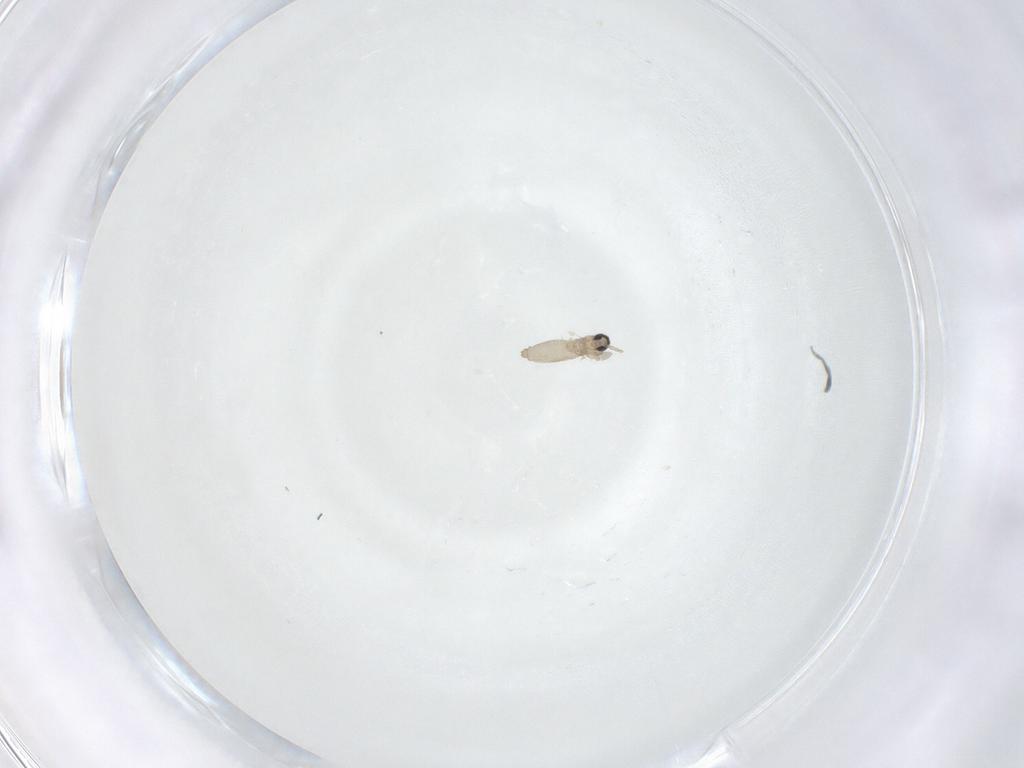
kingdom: Animalia
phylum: Arthropoda
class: Insecta
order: Diptera
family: Cecidomyiidae
